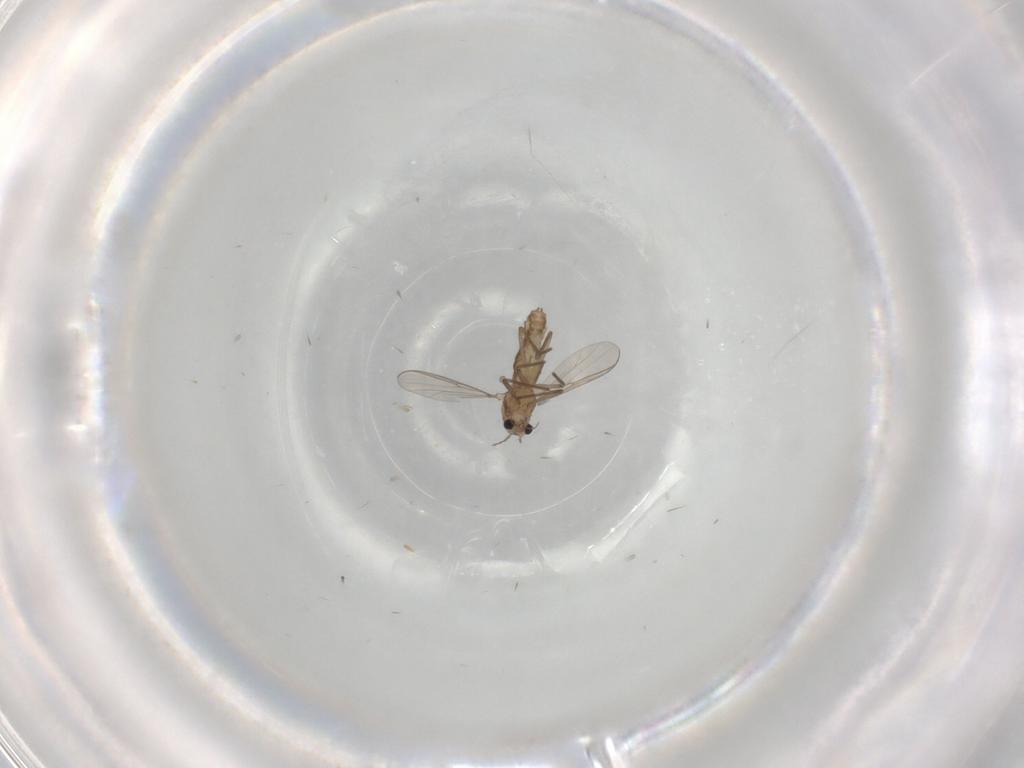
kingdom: Animalia
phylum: Arthropoda
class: Insecta
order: Diptera
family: Chironomidae
